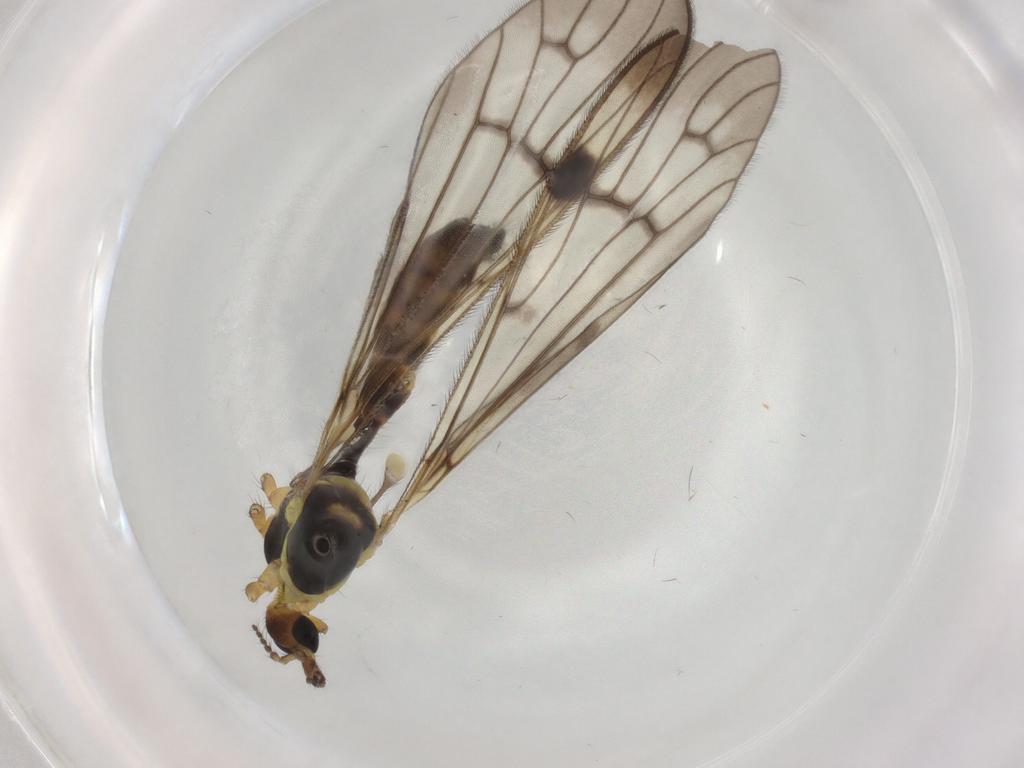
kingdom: Animalia
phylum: Arthropoda
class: Insecta
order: Diptera
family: Limoniidae
